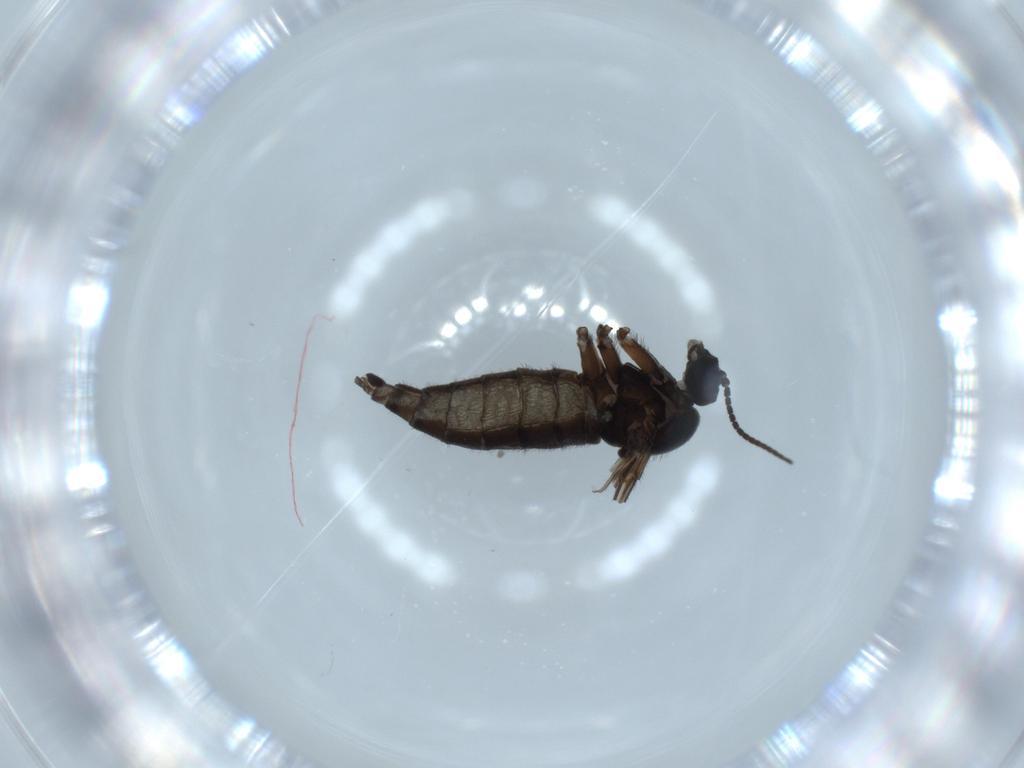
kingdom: Animalia
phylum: Arthropoda
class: Insecta
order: Diptera
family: Sciaridae
